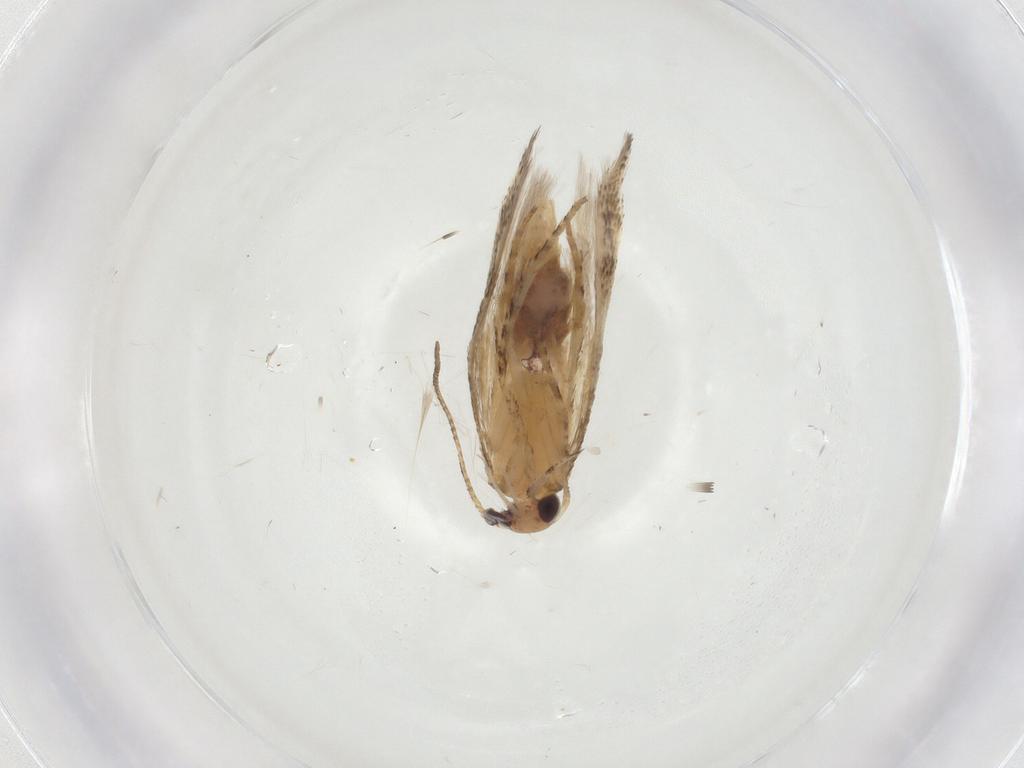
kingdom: Animalia
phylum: Arthropoda
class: Insecta
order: Lepidoptera
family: Gelechiidae
